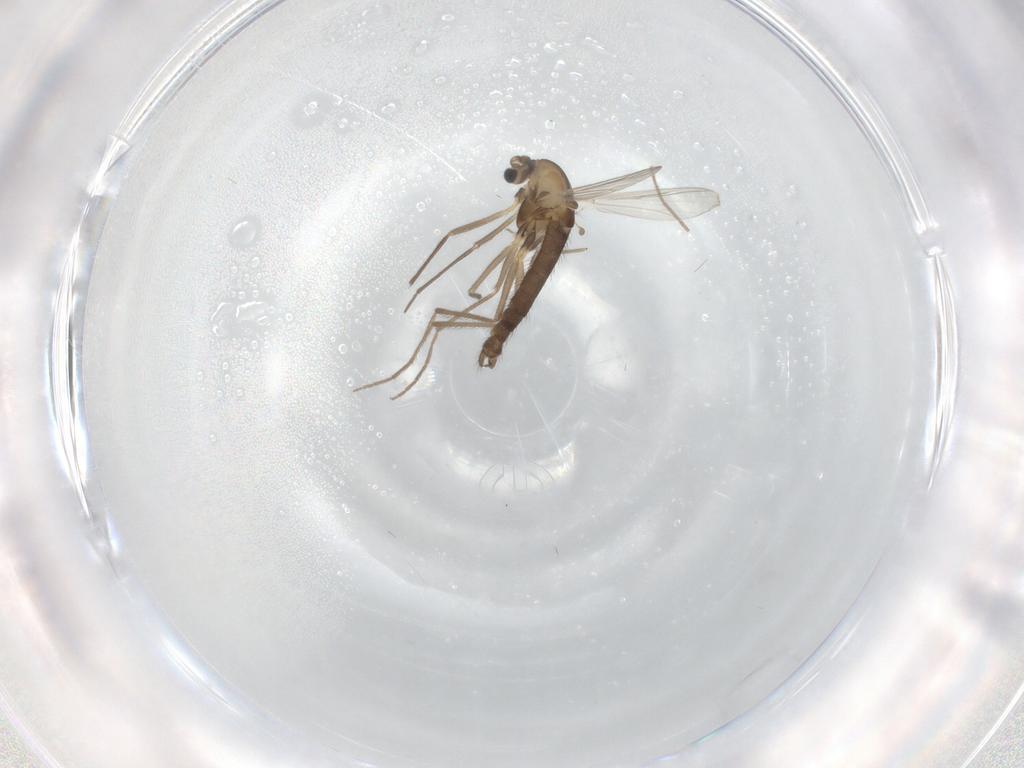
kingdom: Animalia
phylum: Arthropoda
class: Insecta
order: Diptera
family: Chironomidae
